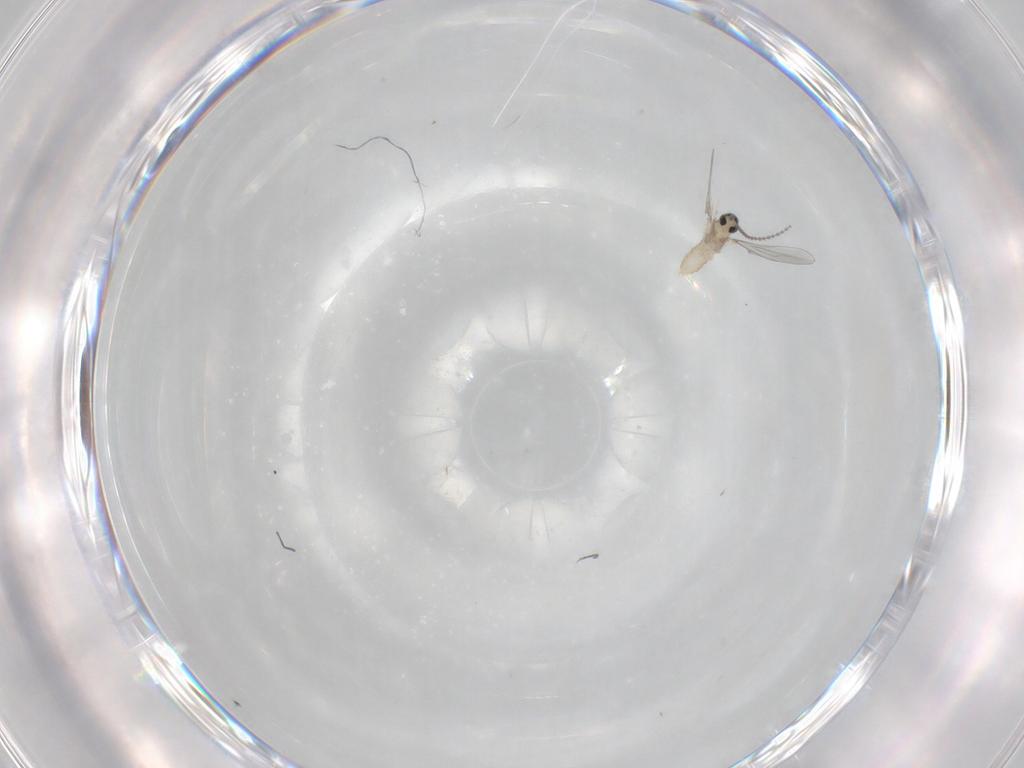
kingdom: Animalia
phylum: Arthropoda
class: Insecta
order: Diptera
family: Cecidomyiidae
